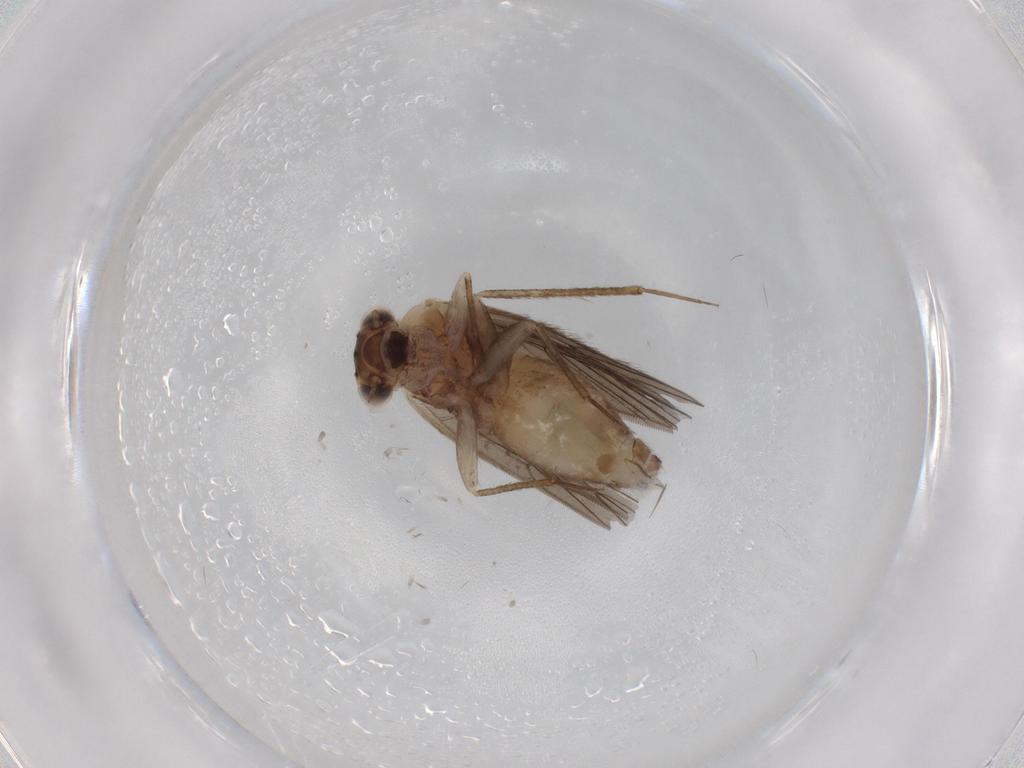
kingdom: Animalia
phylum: Arthropoda
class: Insecta
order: Psocodea
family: Lepidopsocidae
